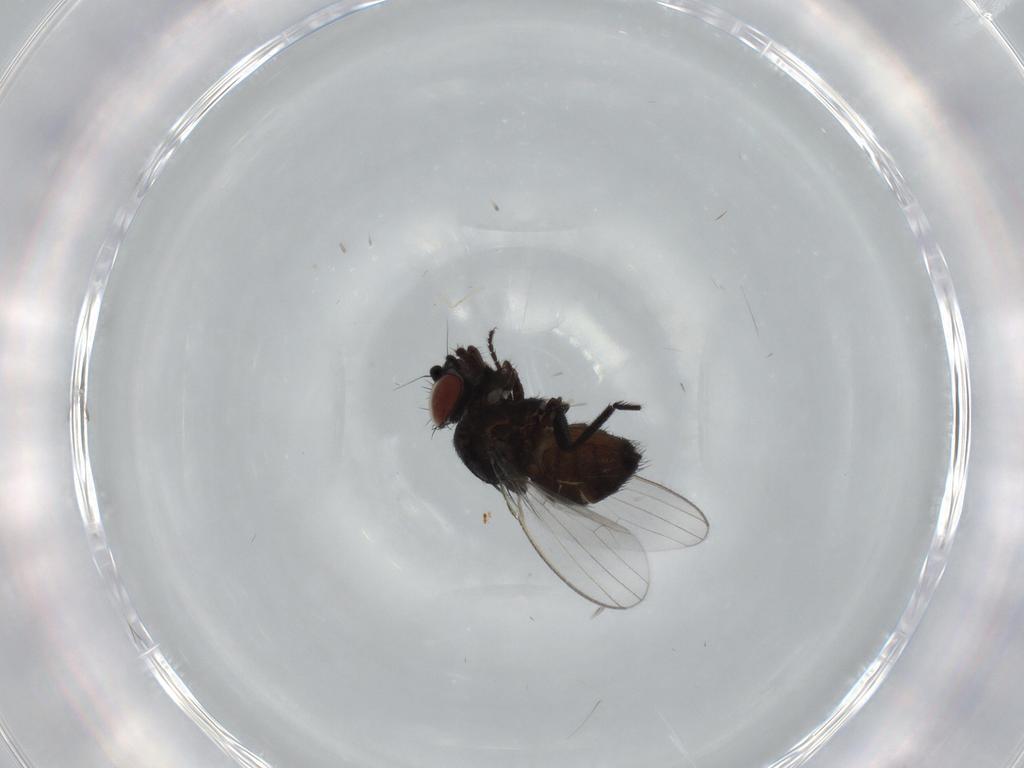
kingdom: Animalia
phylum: Arthropoda
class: Insecta
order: Diptera
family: Milichiidae
